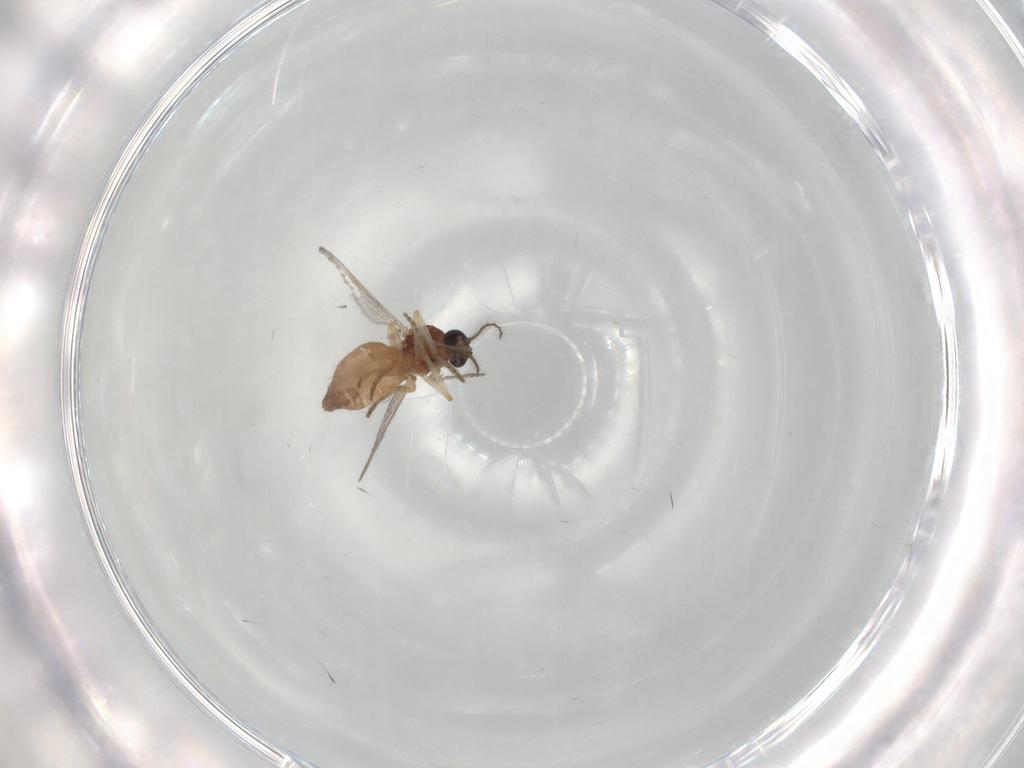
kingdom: Animalia
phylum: Arthropoda
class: Insecta
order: Diptera
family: Ceratopogonidae
